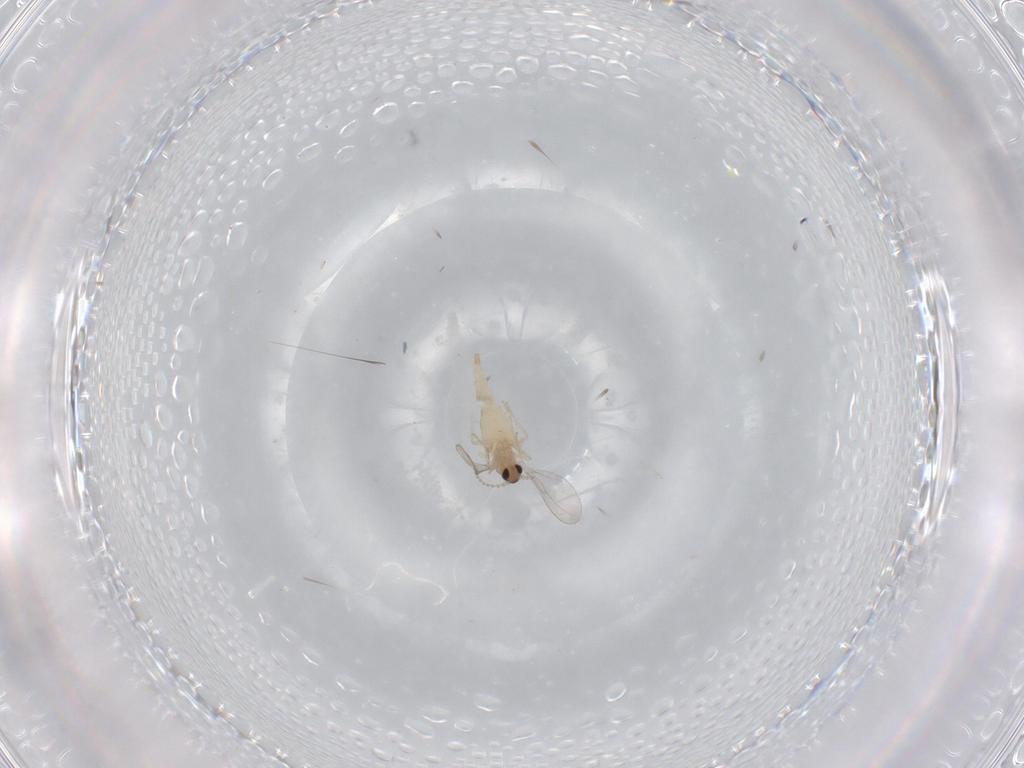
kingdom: Animalia
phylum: Arthropoda
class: Insecta
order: Diptera
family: Cecidomyiidae
